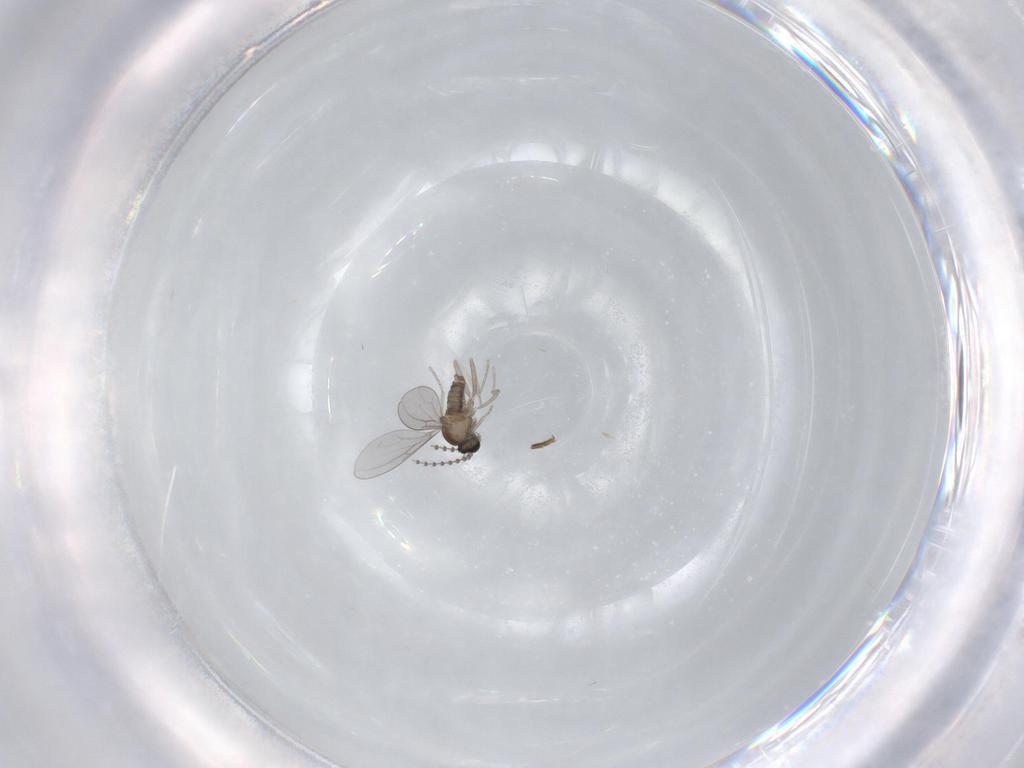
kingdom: Animalia
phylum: Arthropoda
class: Insecta
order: Diptera
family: Cecidomyiidae
